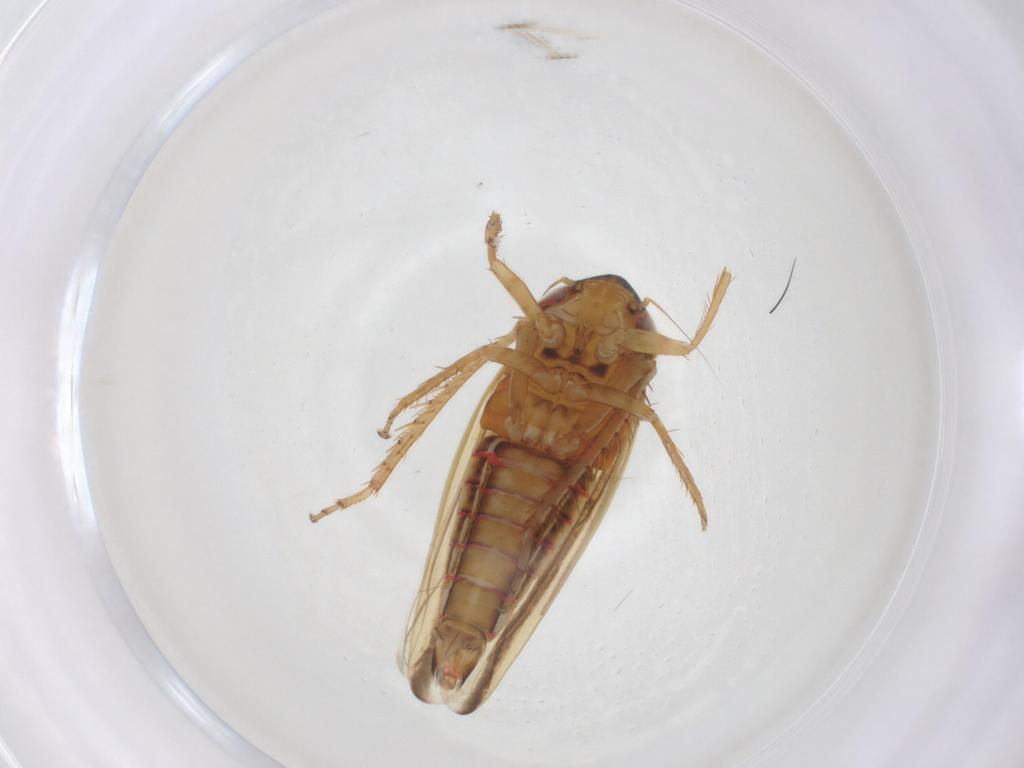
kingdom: Animalia
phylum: Arthropoda
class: Insecta
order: Hemiptera
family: Cicadellidae
